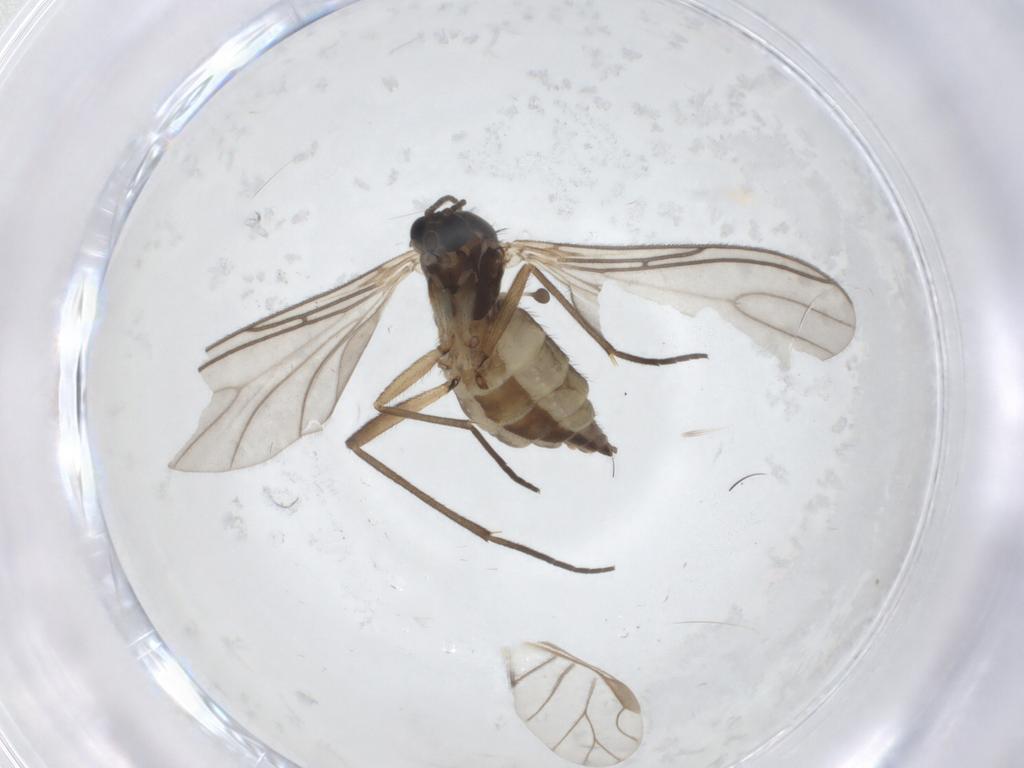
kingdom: Animalia
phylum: Arthropoda
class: Insecta
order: Diptera
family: Sciaridae
